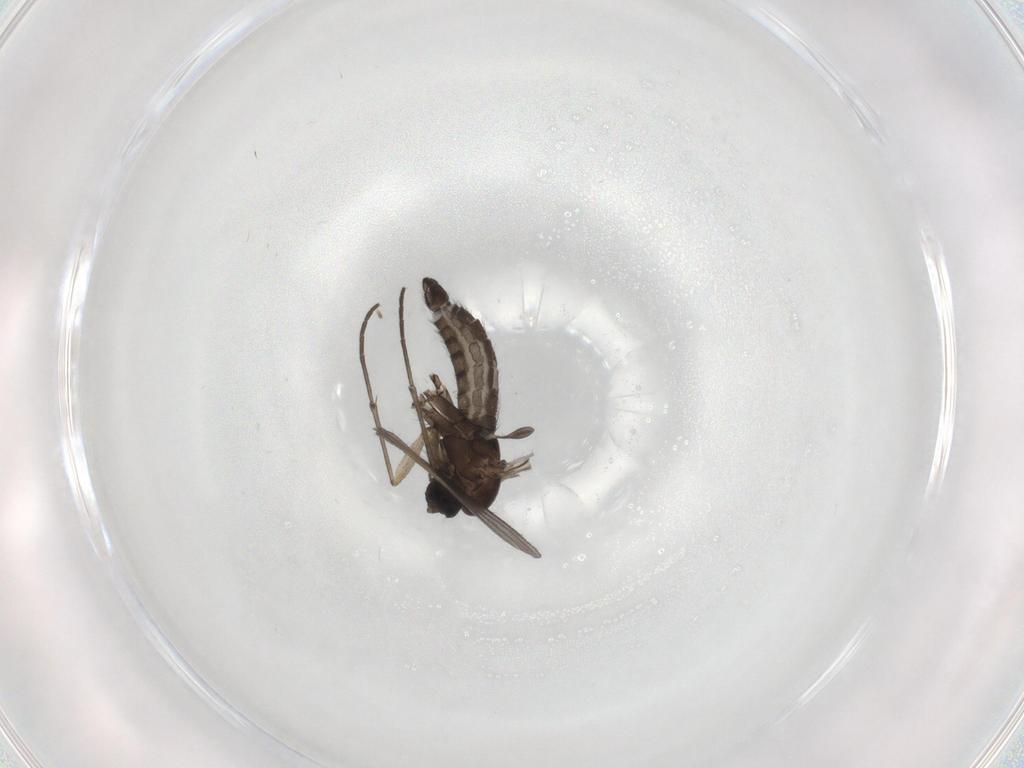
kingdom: Animalia
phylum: Arthropoda
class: Insecta
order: Diptera
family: Sciaridae
